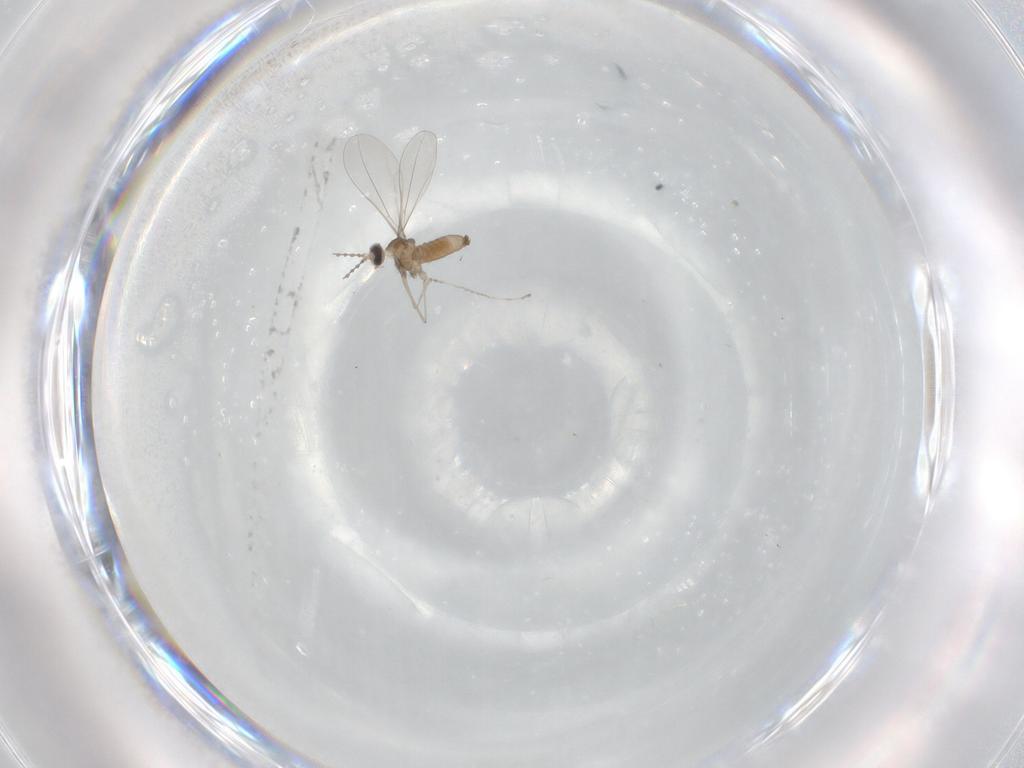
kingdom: Animalia
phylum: Arthropoda
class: Insecta
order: Diptera
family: Cecidomyiidae
